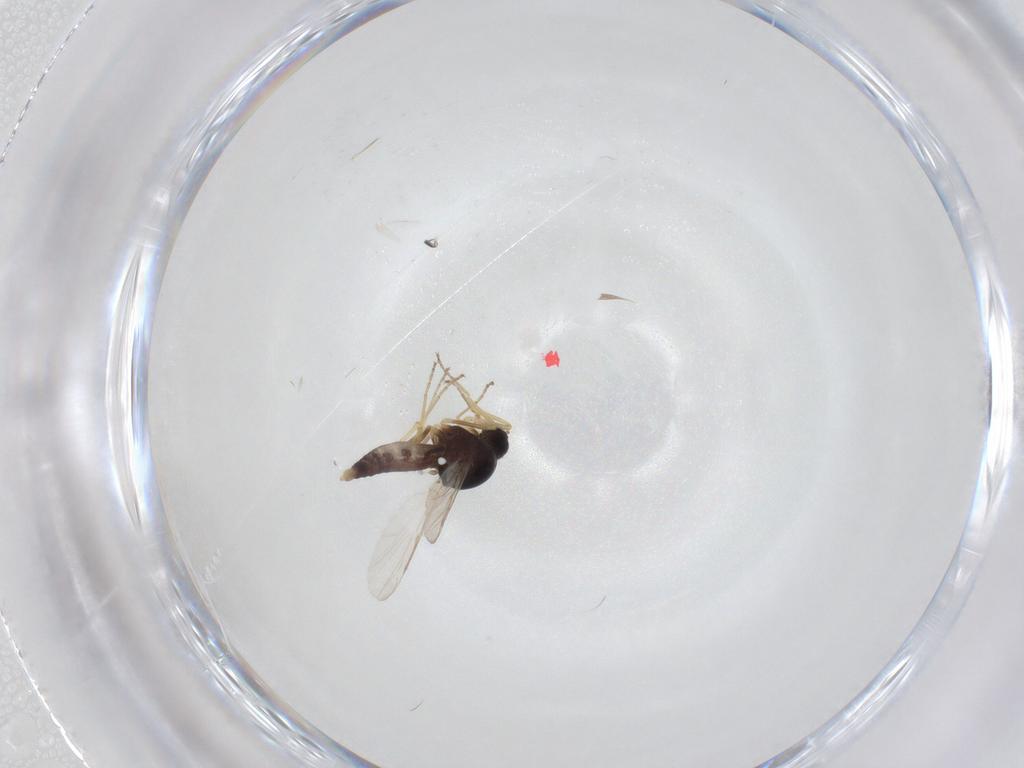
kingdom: Animalia
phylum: Arthropoda
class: Insecta
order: Diptera
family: Ceratopogonidae
